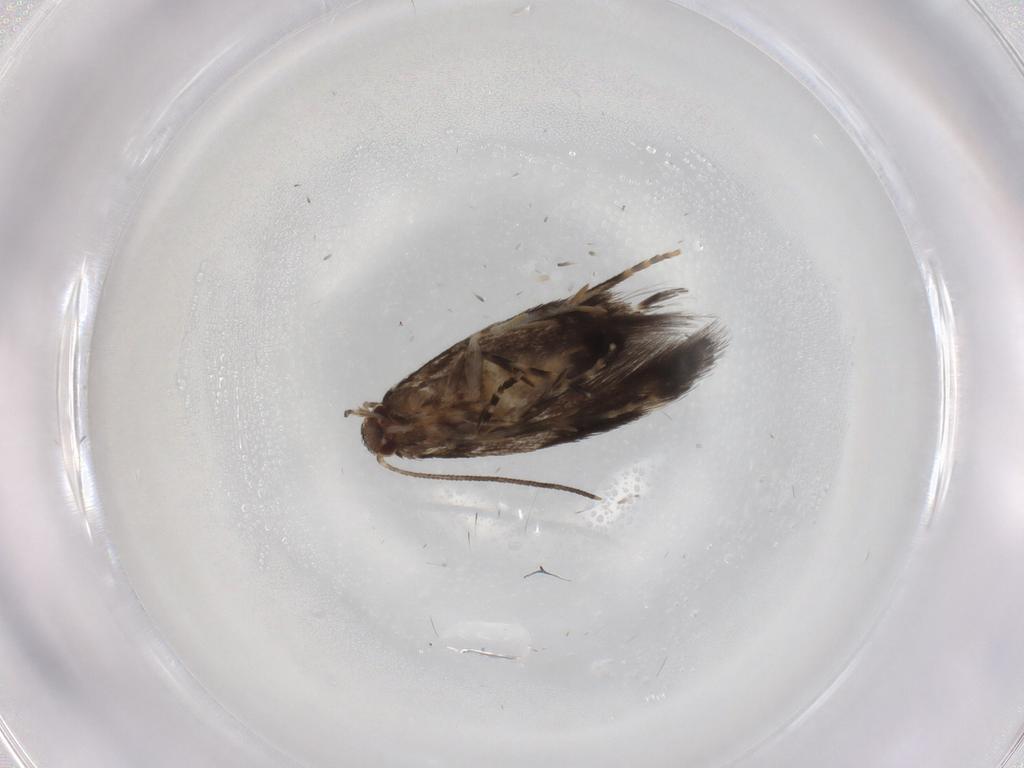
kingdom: Animalia
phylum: Arthropoda
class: Insecta
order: Lepidoptera
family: Elachistidae
